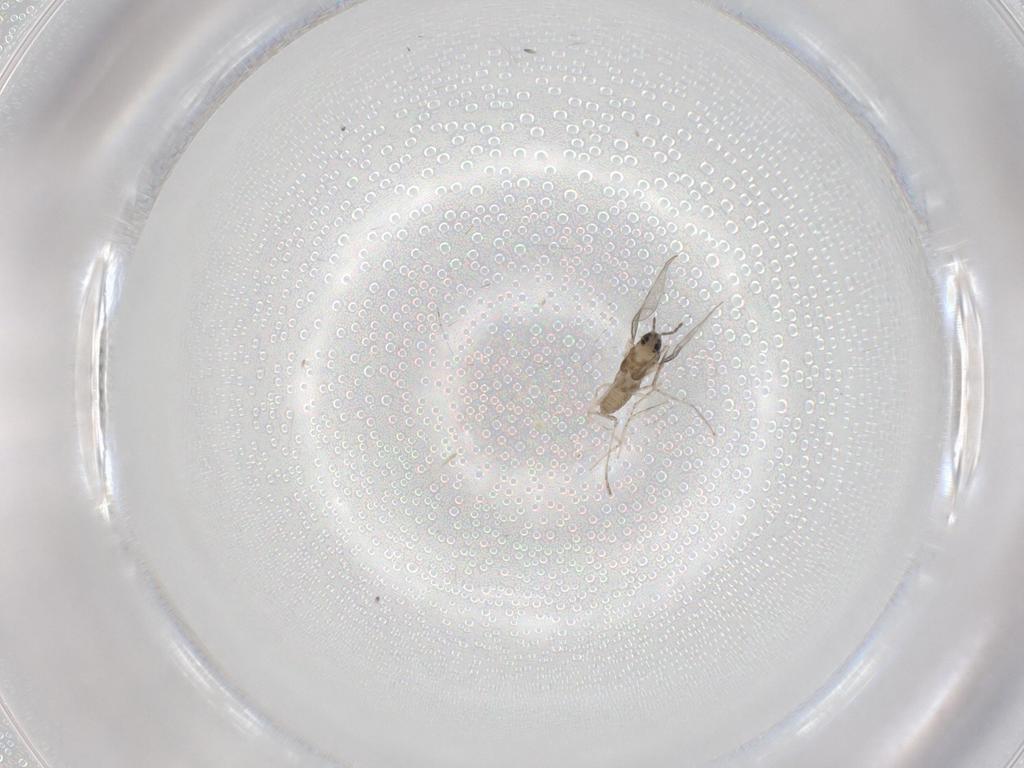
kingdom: Animalia
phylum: Arthropoda
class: Insecta
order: Diptera
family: Cecidomyiidae
